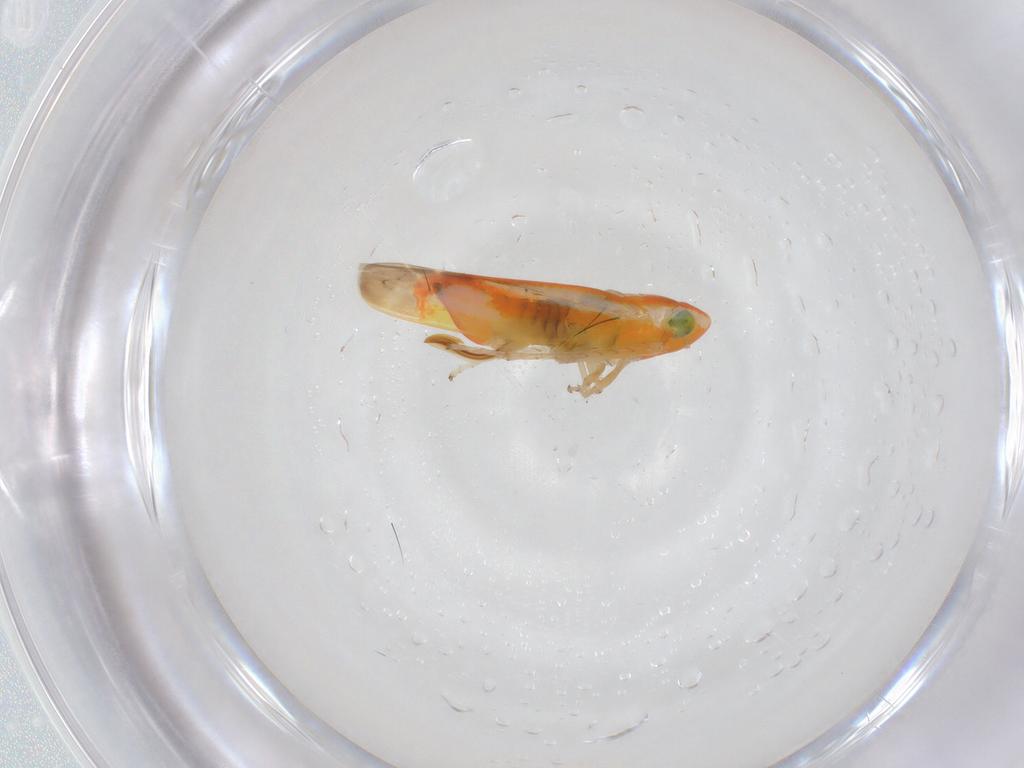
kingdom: Animalia
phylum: Arthropoda
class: Insecta
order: Hemiptera
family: Cicadellidae
